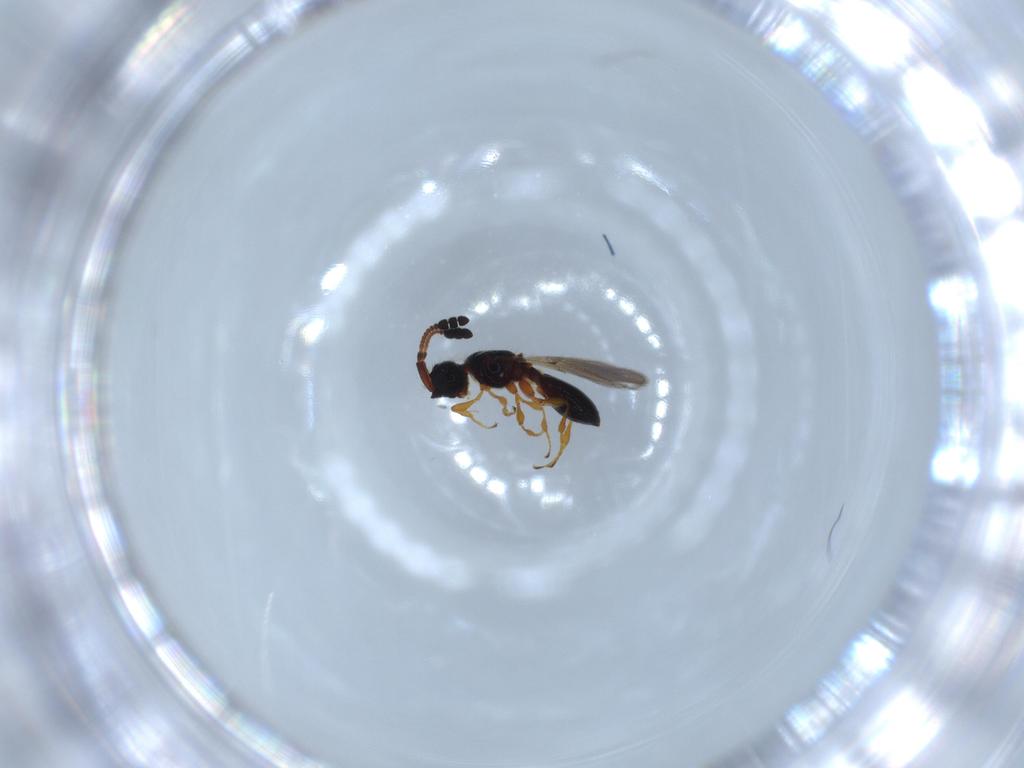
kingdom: Animalia
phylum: Arthropoda
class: Insecta
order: Hymenoptera
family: Diapriidae
